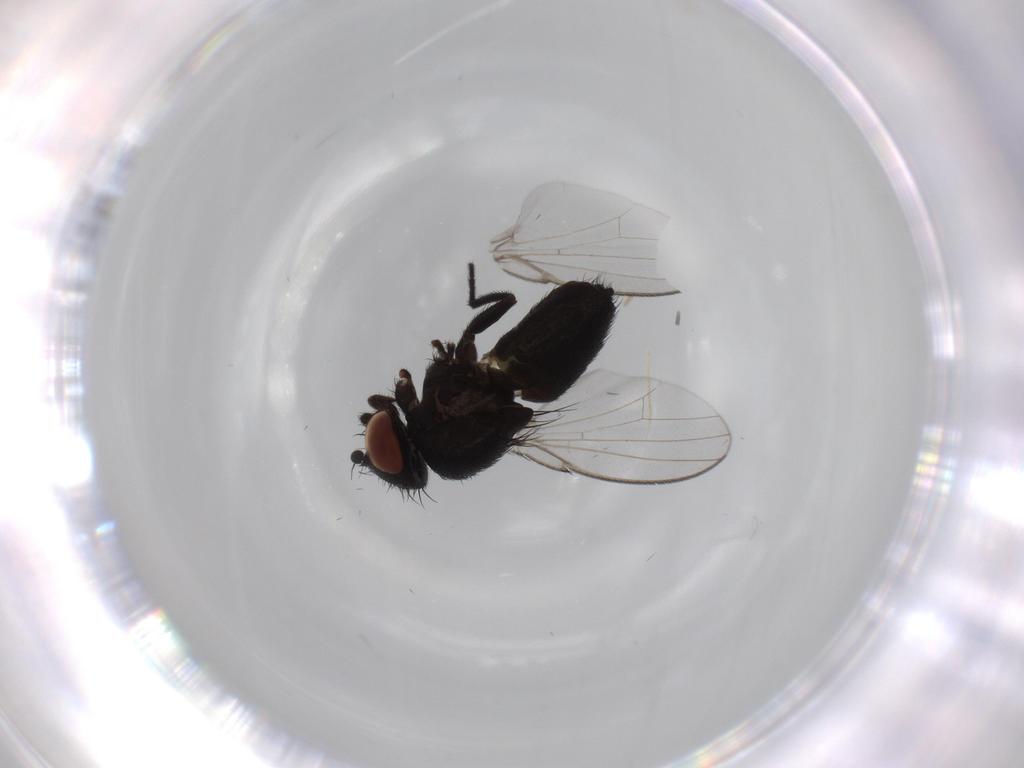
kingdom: Animalia
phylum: Arthropoda
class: Insecta
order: Diptera
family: Milichiidae
